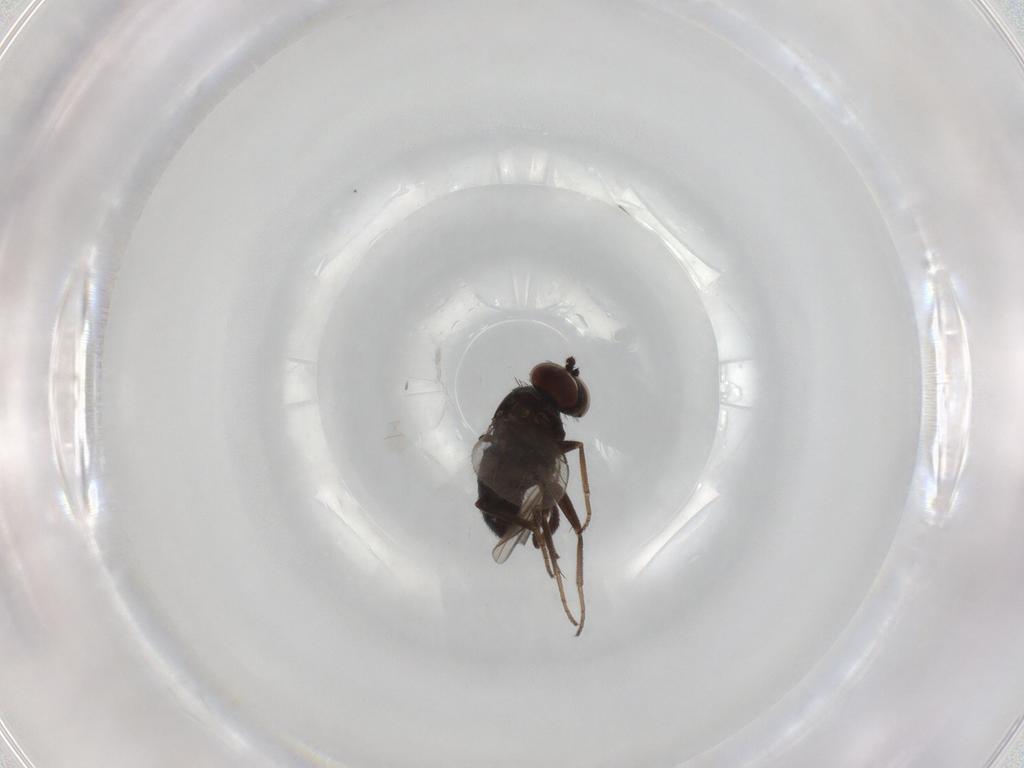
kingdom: Animalia
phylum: Arthropoda
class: Insecta
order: Diptera
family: Dolichopodidae
